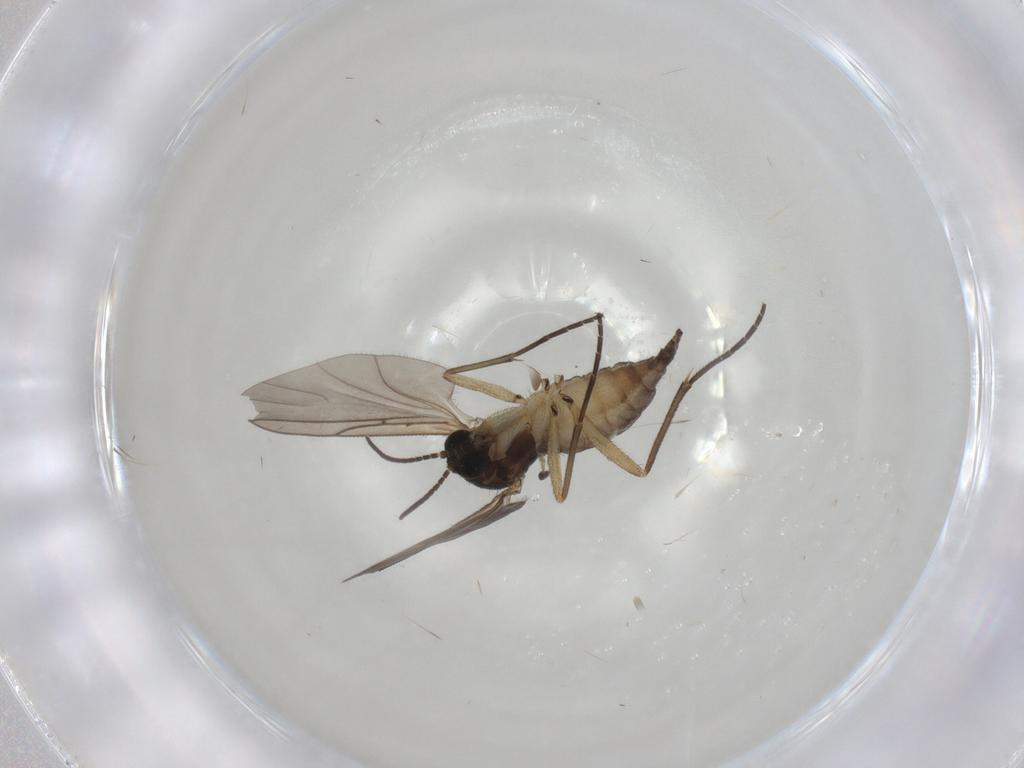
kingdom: Animalia
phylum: Arthropoda
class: Insecta
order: Diptera
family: Sciaridae
